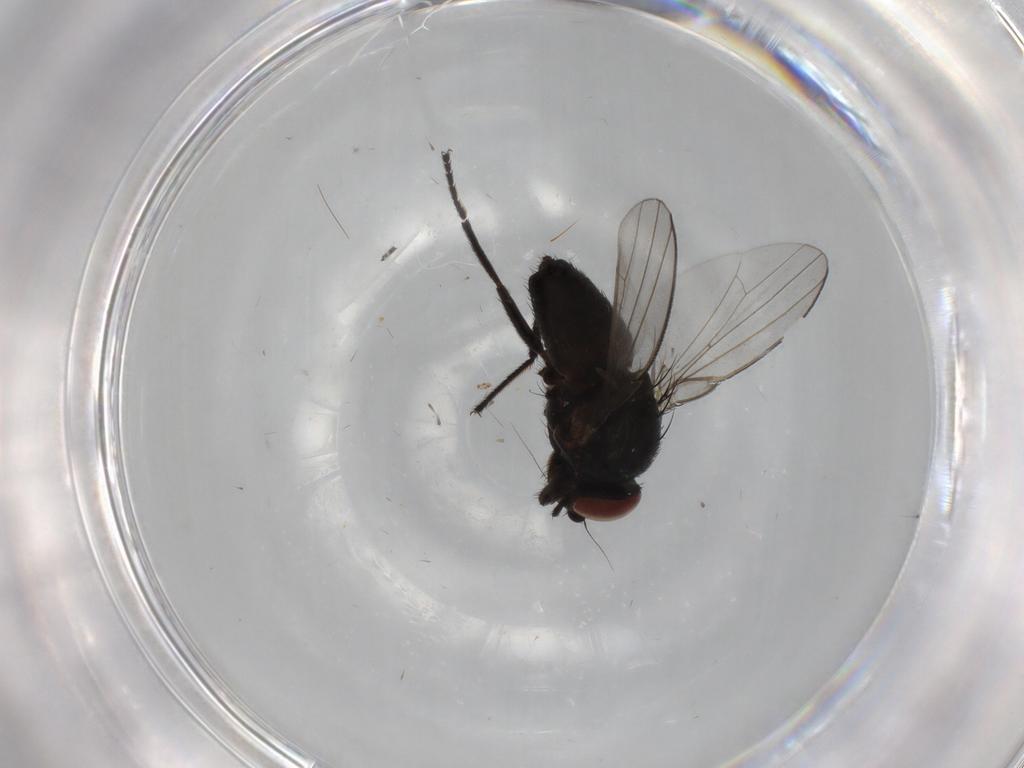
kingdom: Animalia
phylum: Arthropoda
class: Insecta
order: Diptera
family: Milichiidae
